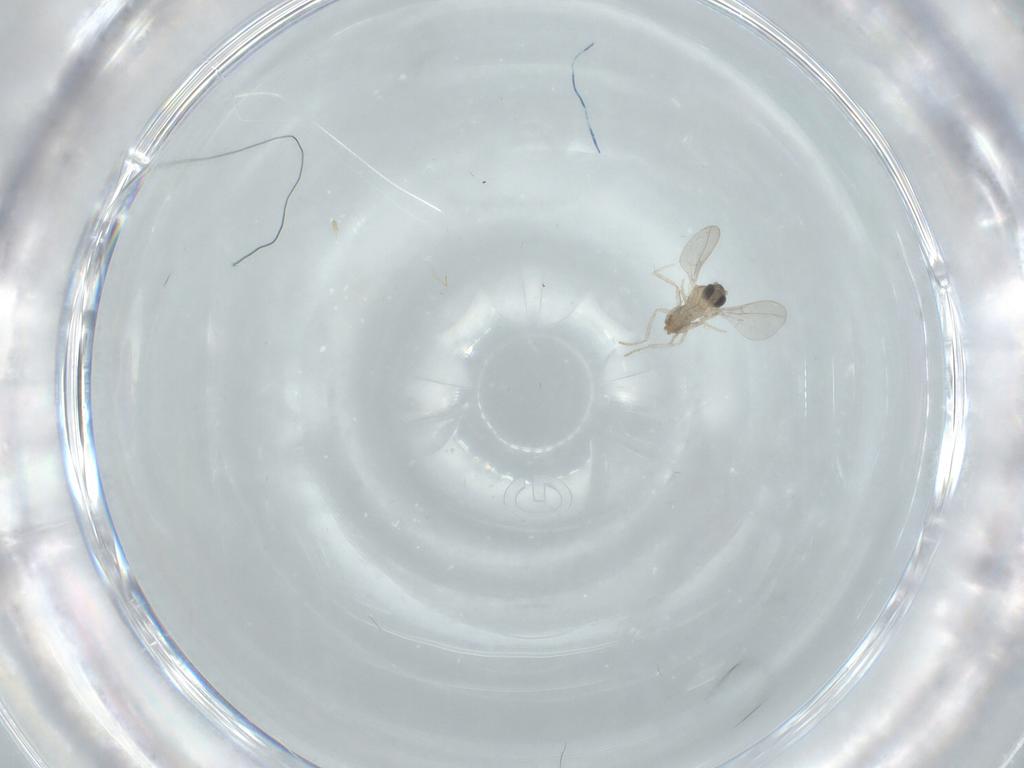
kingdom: Animalia
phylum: Arthropoda
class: Insecta
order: Diptera
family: Cecidomyiidae
